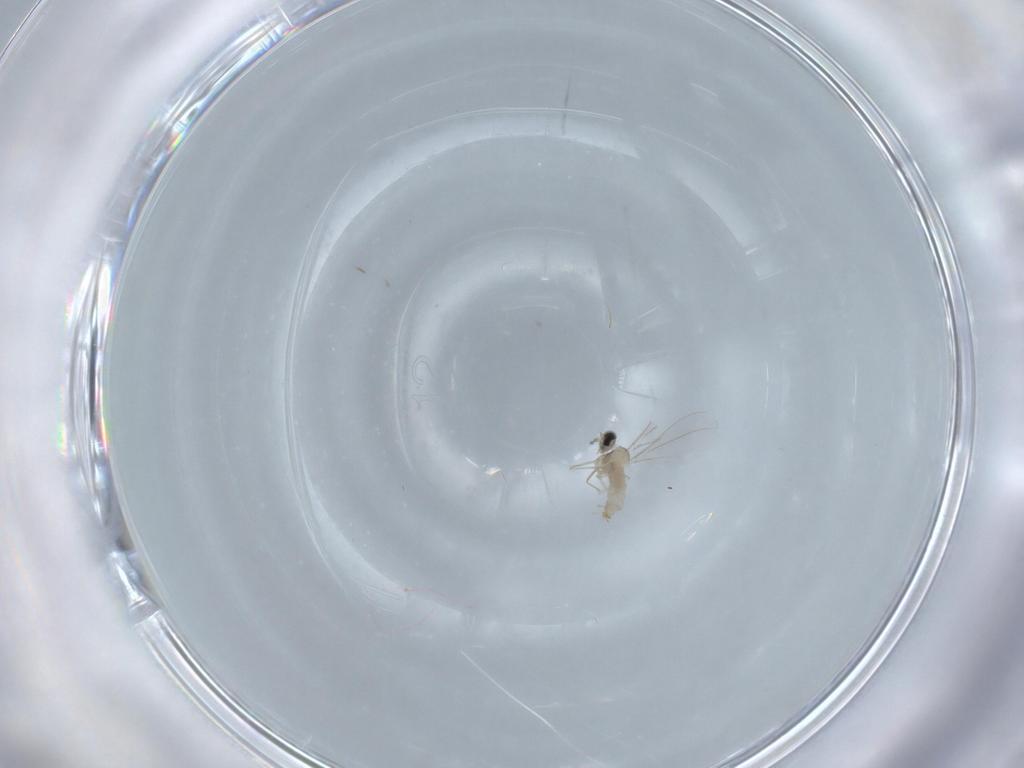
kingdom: Animalia
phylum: Arthropoda
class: Insecta
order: Diptera
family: Cecidomyiidae
